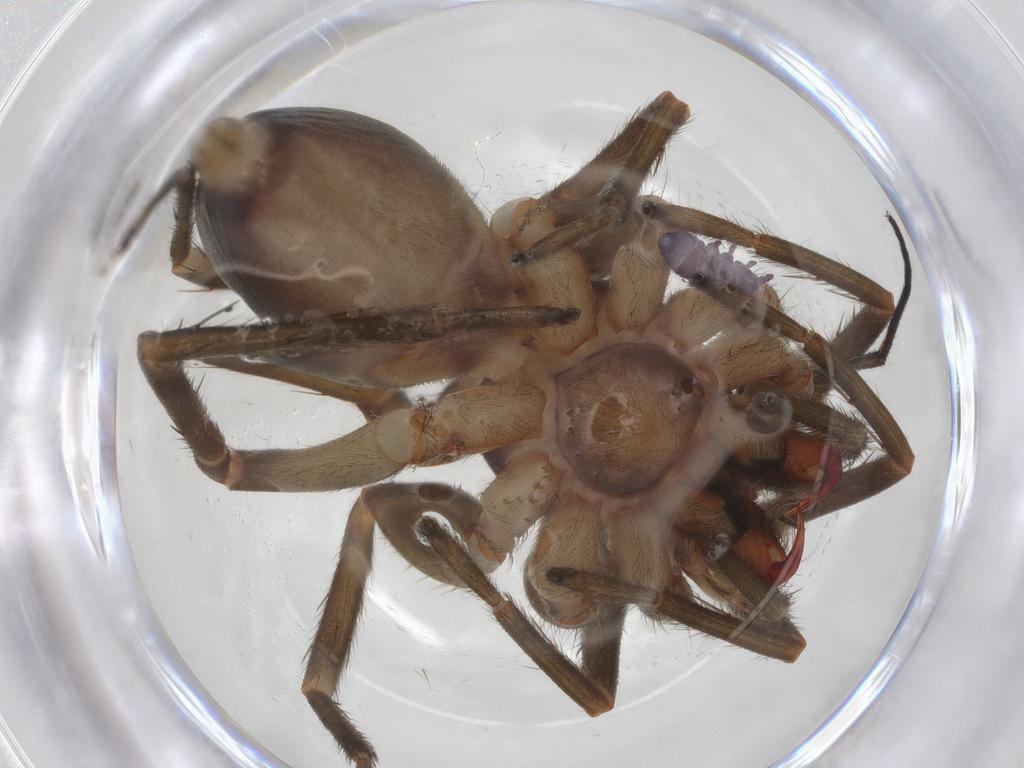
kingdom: Animalia
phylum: Arthropoda
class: Arachnida
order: Araneae
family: Corinnidae
